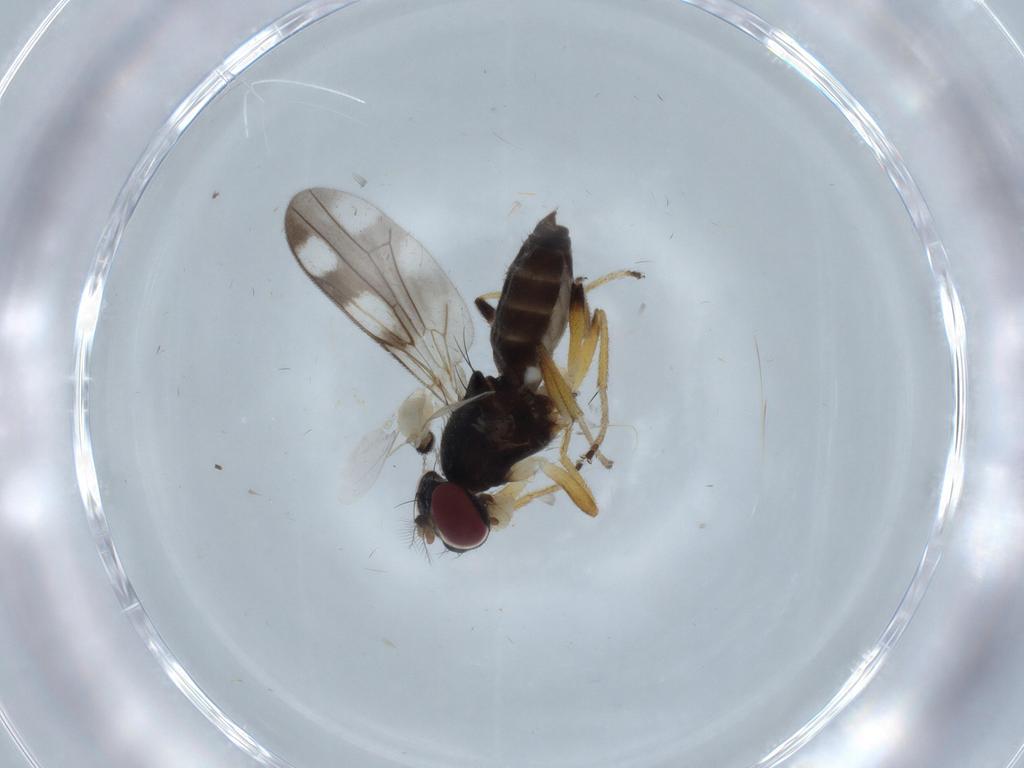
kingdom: Animalia
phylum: Arthropoda
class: Insecta
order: Diptera
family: Cecidomyiidae
